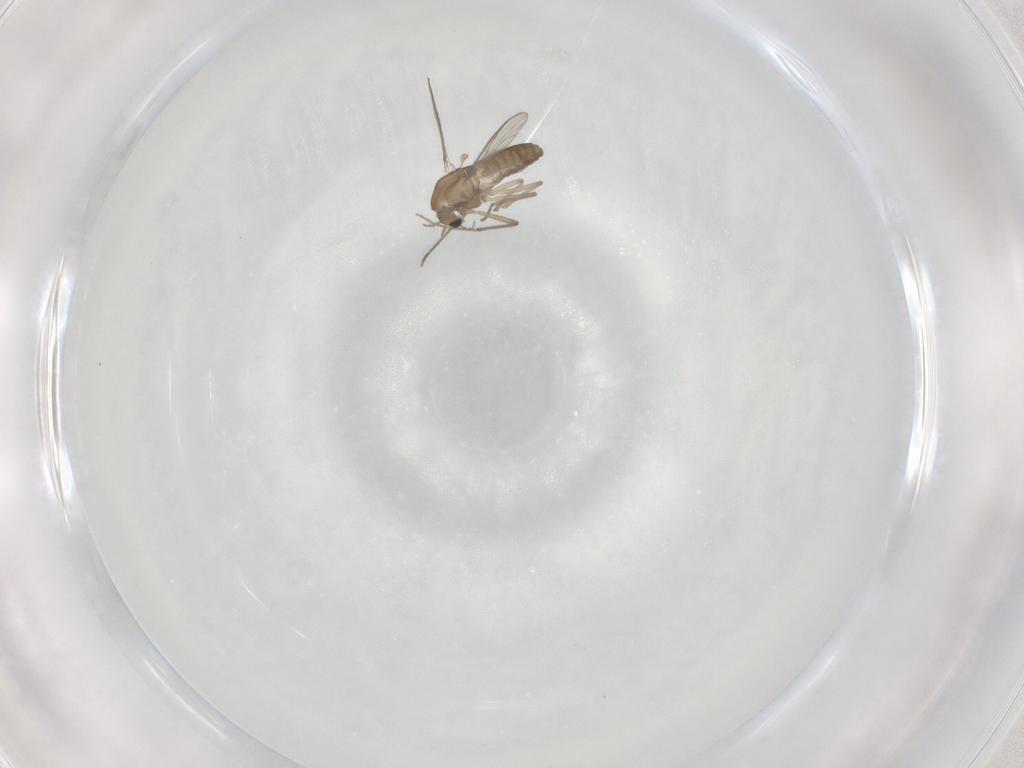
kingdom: Animalia
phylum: Arthropoda
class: Insecta
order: Diptera
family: Chironomidae
